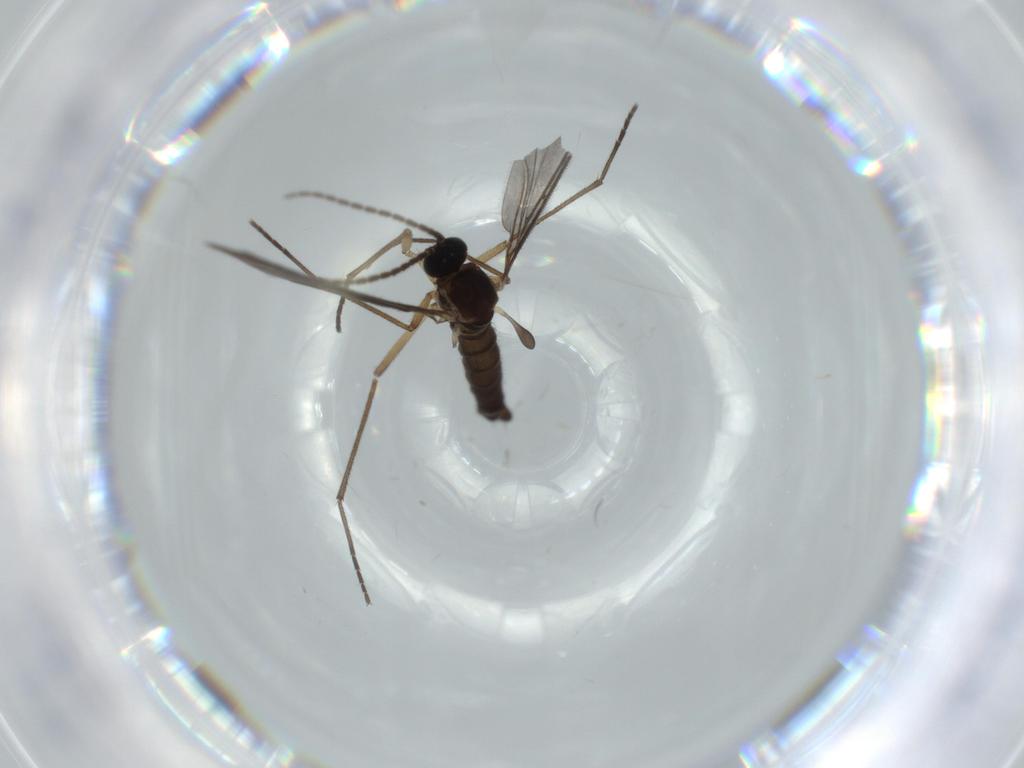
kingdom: Animalia
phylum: Arthropoda
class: Insecta
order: Diptera
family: Sciaridae
